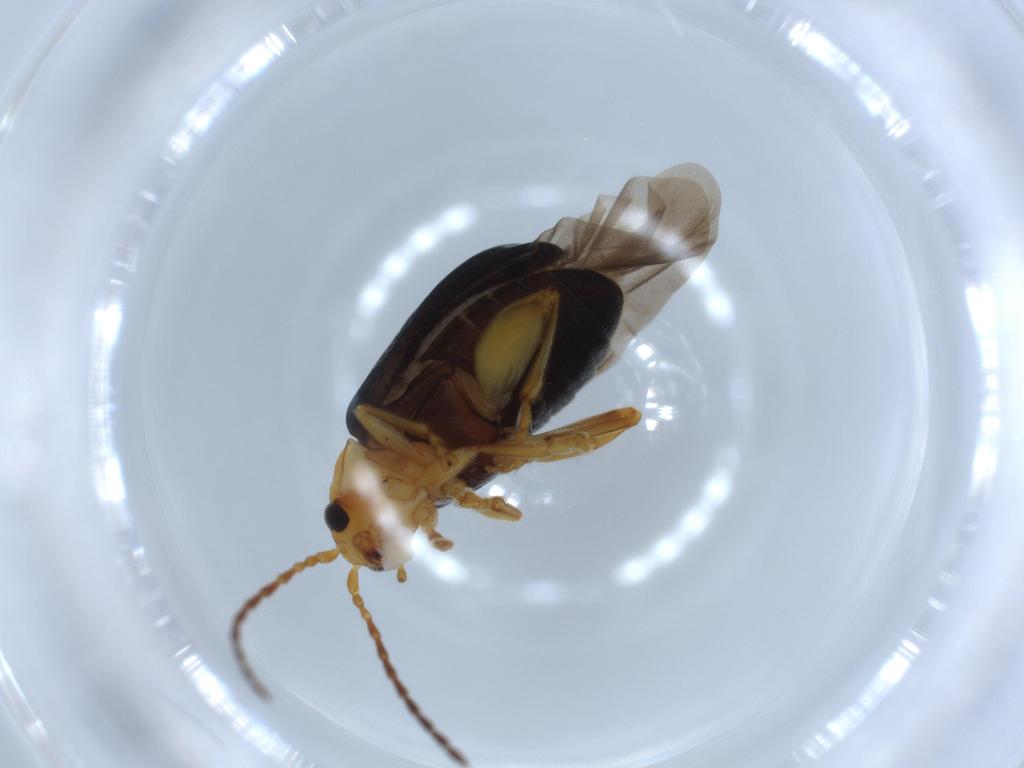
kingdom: Animalia
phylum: Arthropoda
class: Insecta
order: Coleoptera
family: Chrysomelidae
